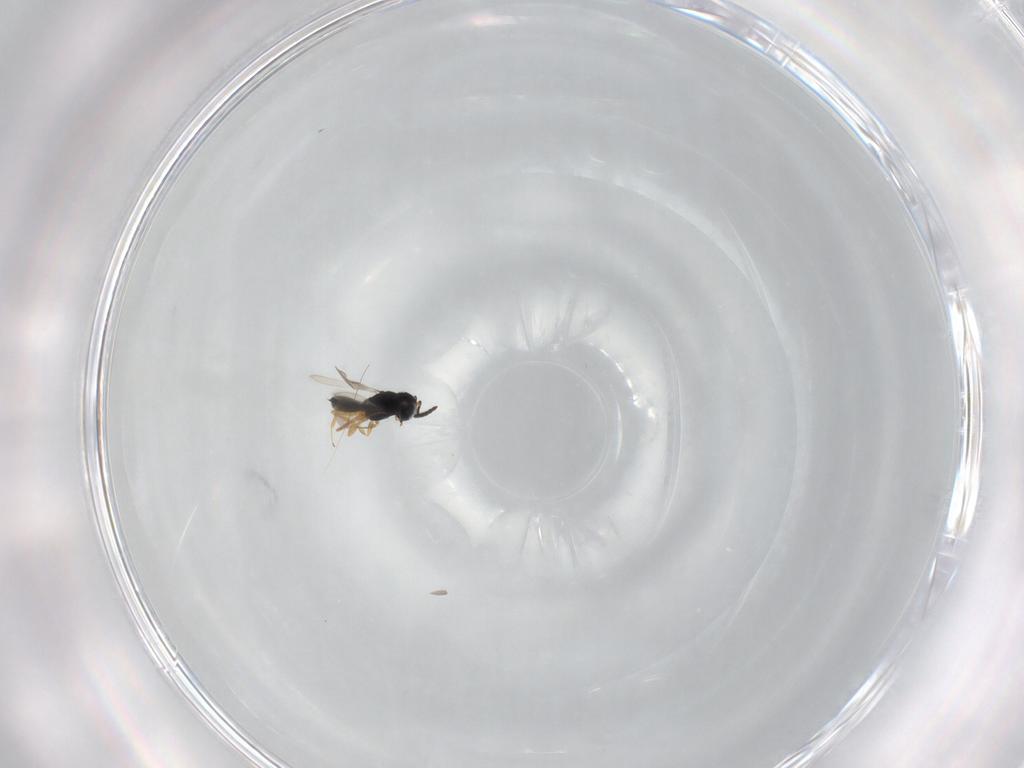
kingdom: Animalia
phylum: Arthropoda
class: Insecta
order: Hymenoptera
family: Scelionidae
